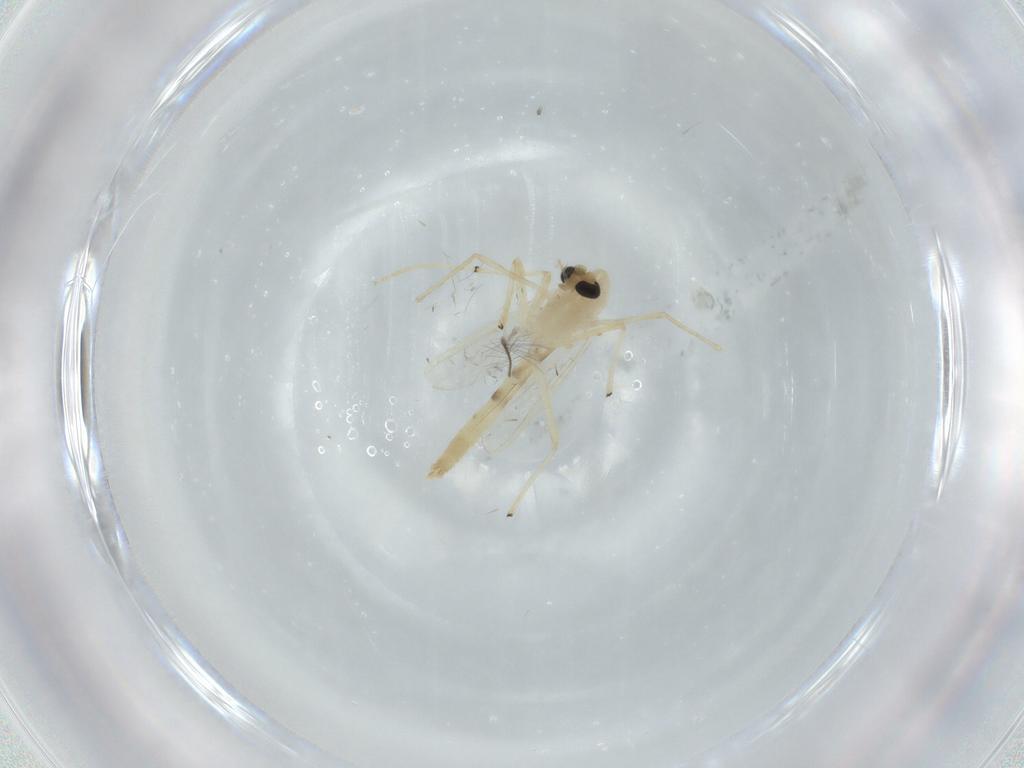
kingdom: Animalia
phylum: Arthropoda
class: Insecta
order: Diptera
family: Chironomidae
